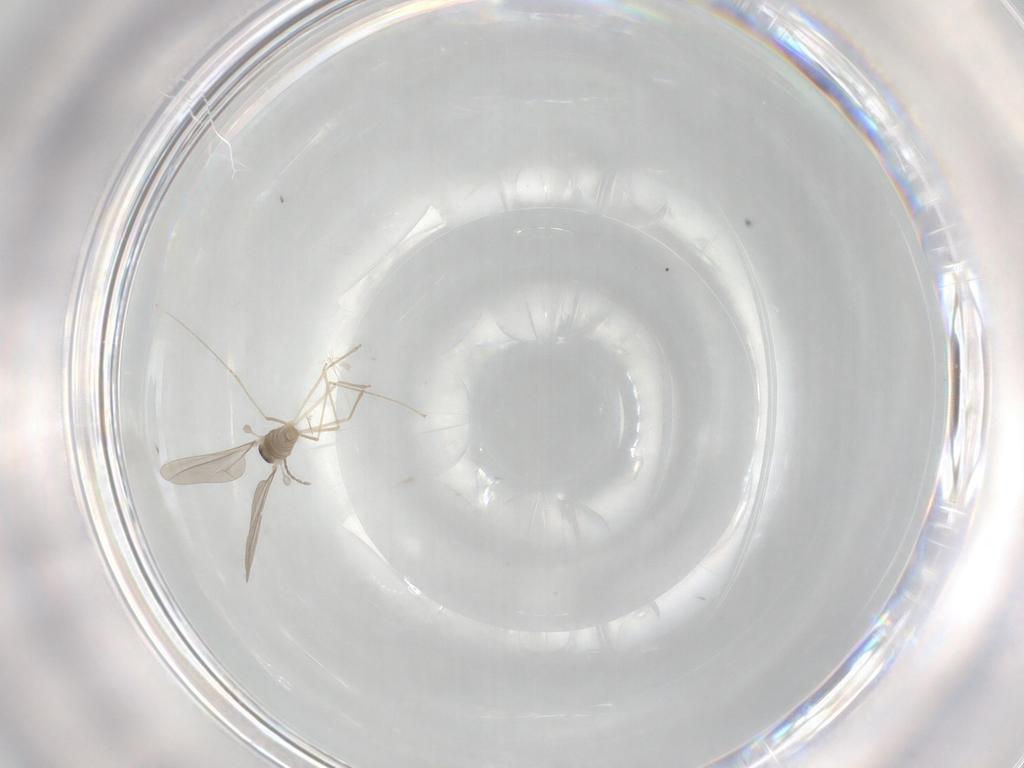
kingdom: Animalia
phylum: Arthropoda
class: Insecta
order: Diptera
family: Cecidomyiidae
